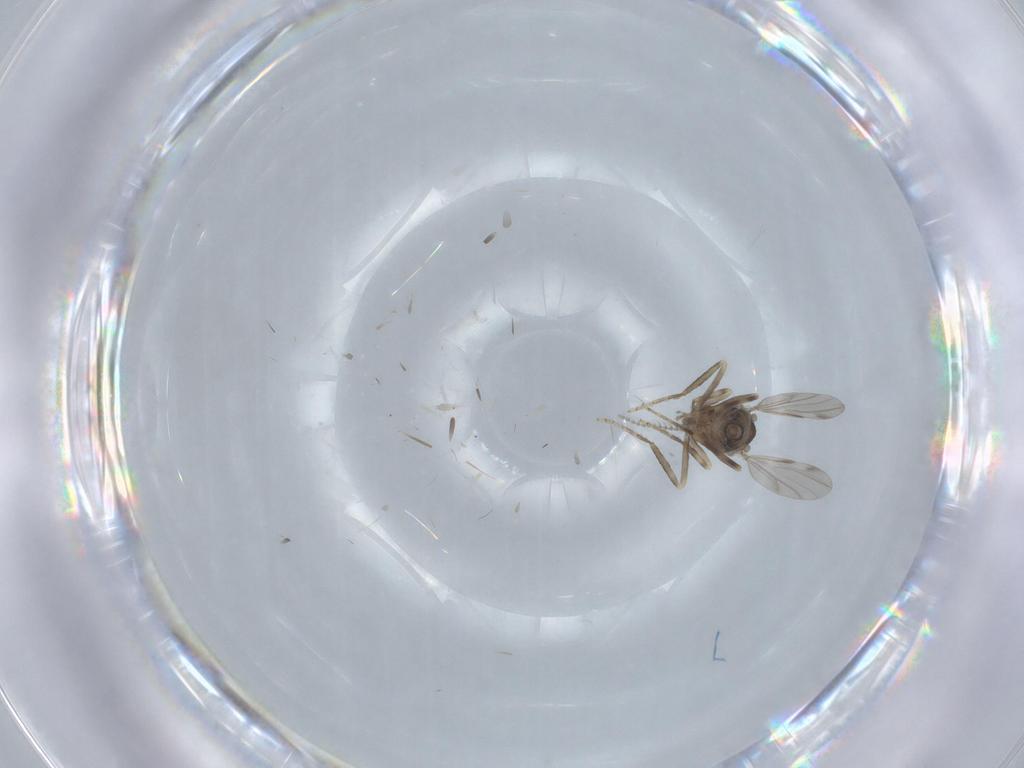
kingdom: Animalia
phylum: Arthropoda
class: Insecta
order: Diptera
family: Ceratopogonidae
